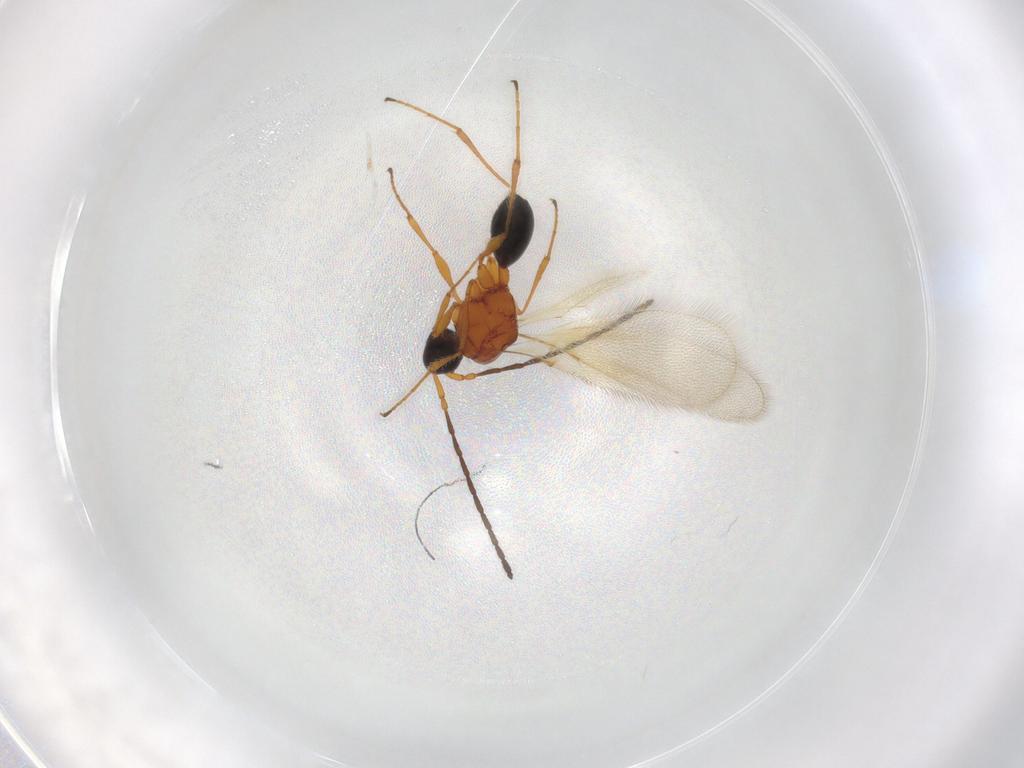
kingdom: Animalia
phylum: Arthropoda
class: Insecta
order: Hymenoptera
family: Diapriidae
